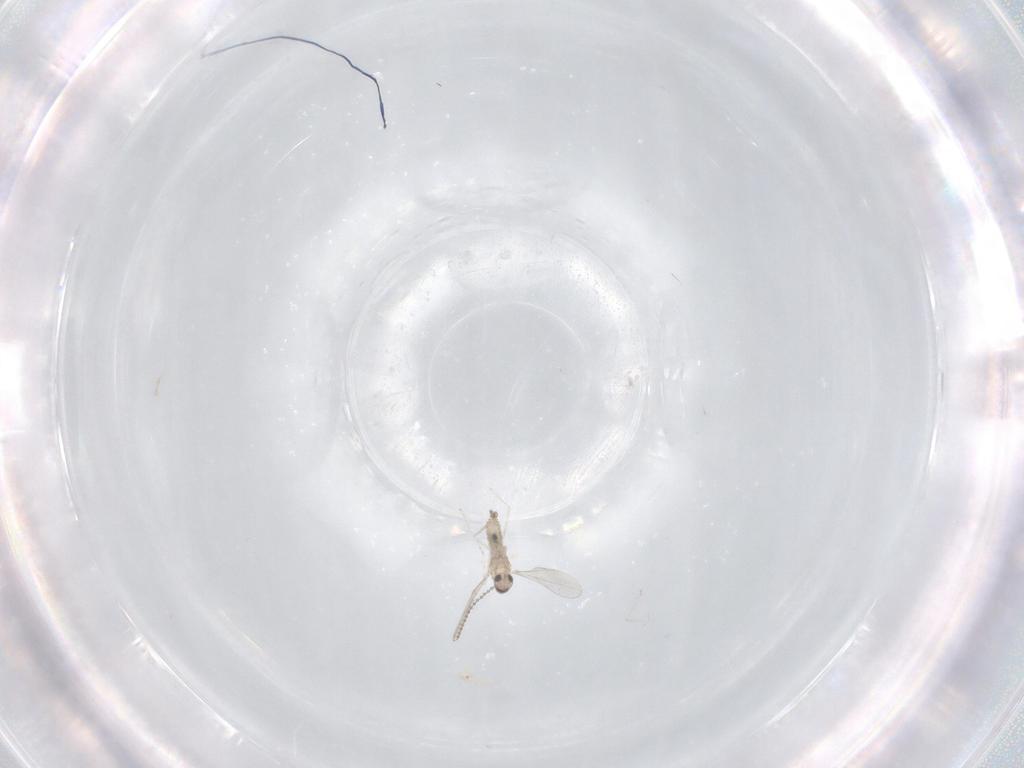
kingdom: Animalia
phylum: Arthropoda
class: Insecta
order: Diptera
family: Cecidomyiidae
